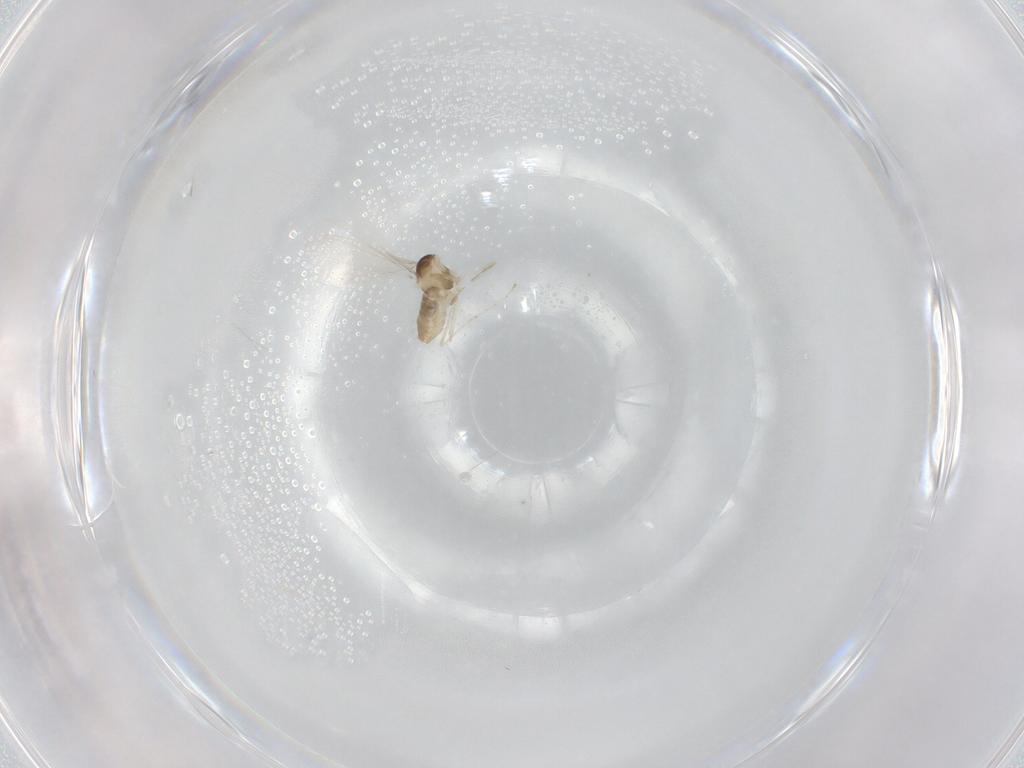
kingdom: Animalia
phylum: Arthropoda
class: Insecta
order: Diptera
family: Cecidomyiidae
